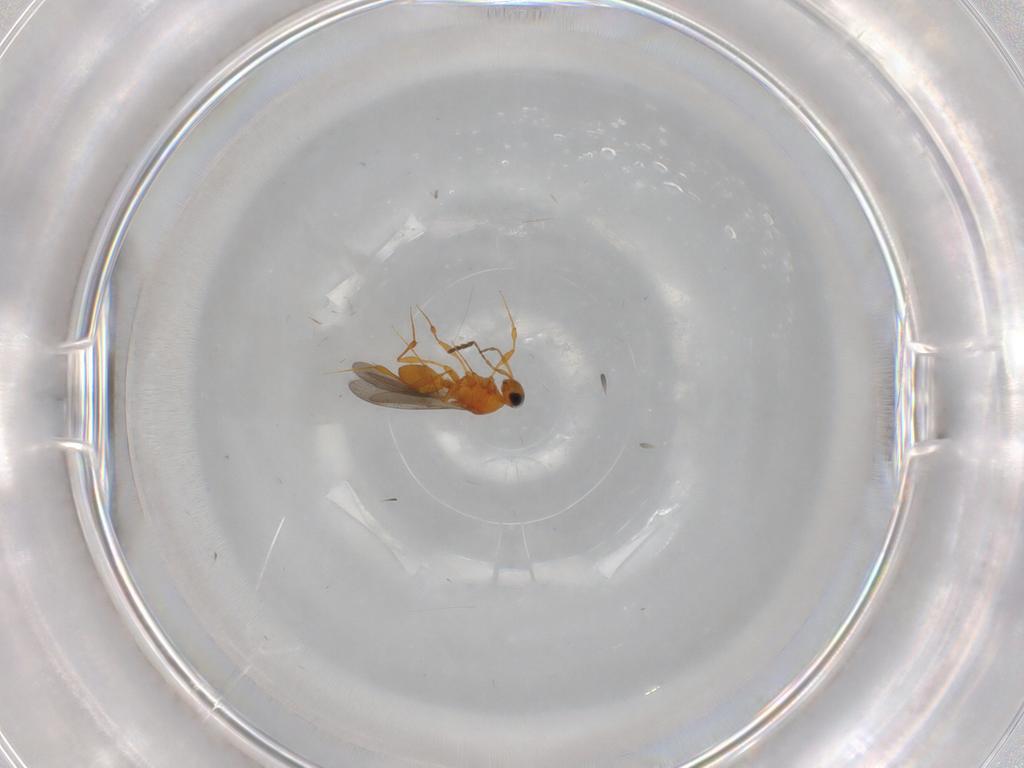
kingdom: Animalia
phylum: Arthropoda
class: Insecta
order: Hymenoptera
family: Platygastridae
